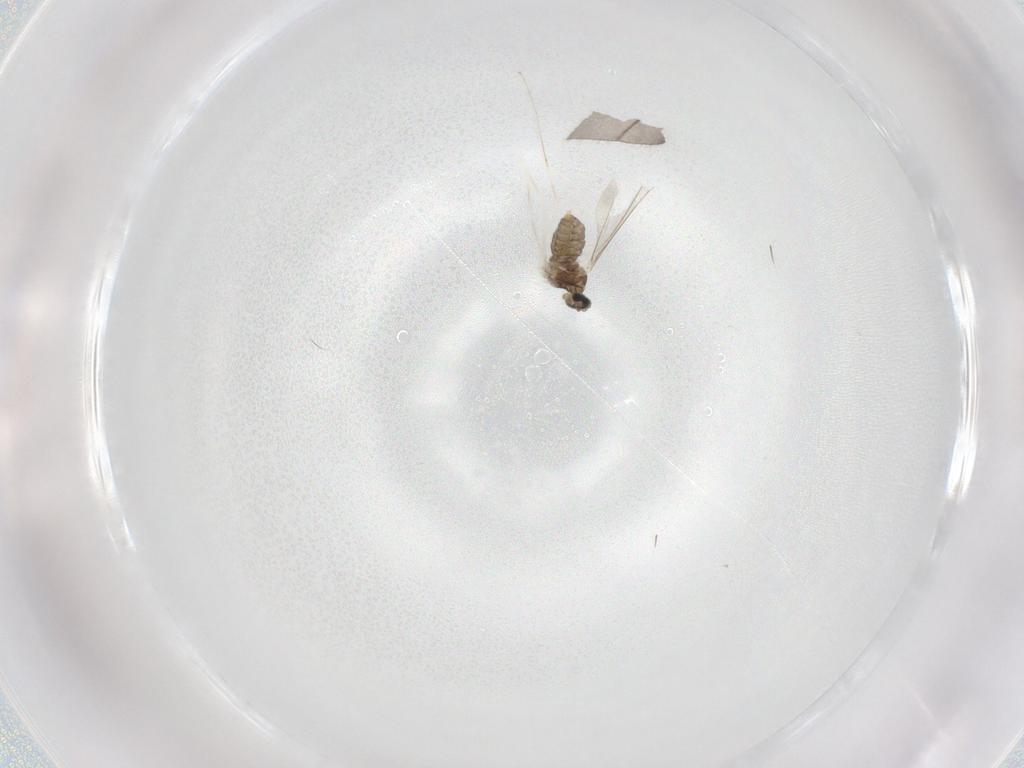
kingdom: Animalia
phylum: Arthropoda
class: Insecta
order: Diptera
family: Cecidomyiidae
